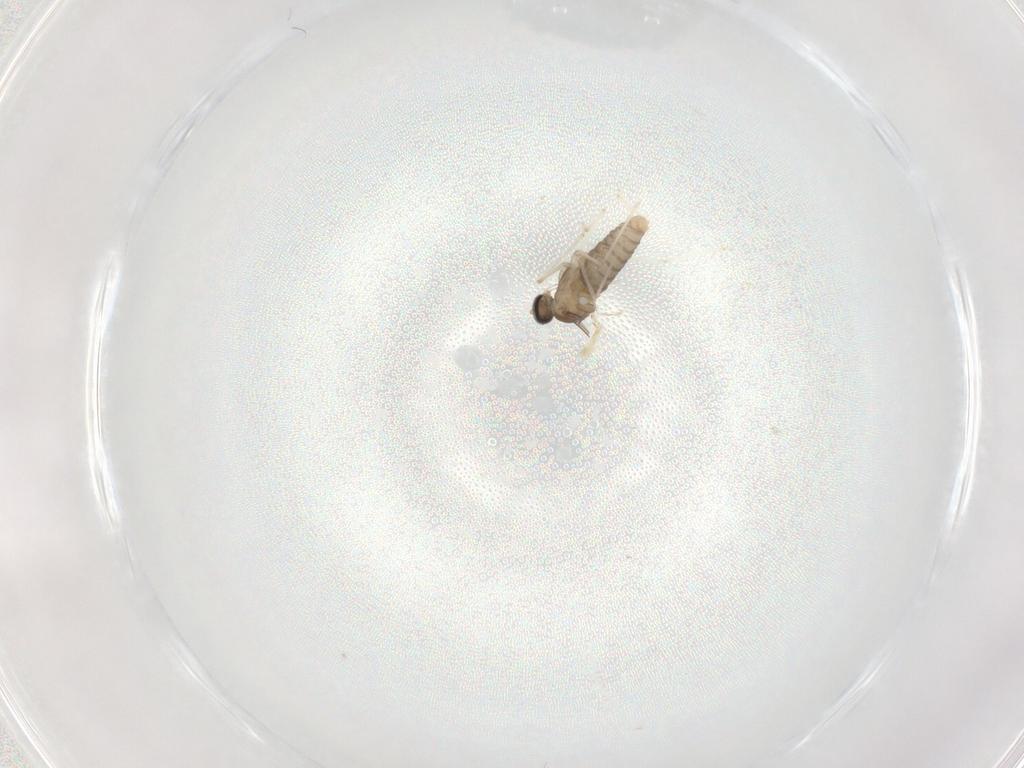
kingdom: Animalia
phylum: Arthropoda
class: Insecta
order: Diptera
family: Cecidomyiidae
